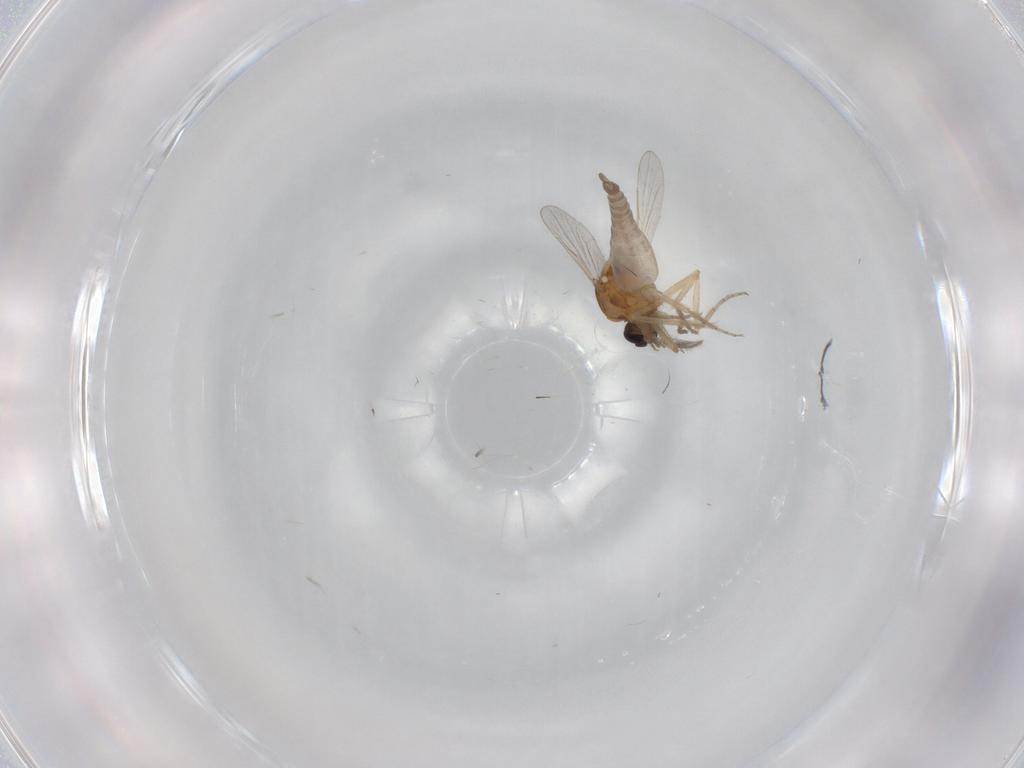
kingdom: Animalia
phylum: Arthropoda
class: Insecta
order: Diptera
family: Ceratopogonidae
